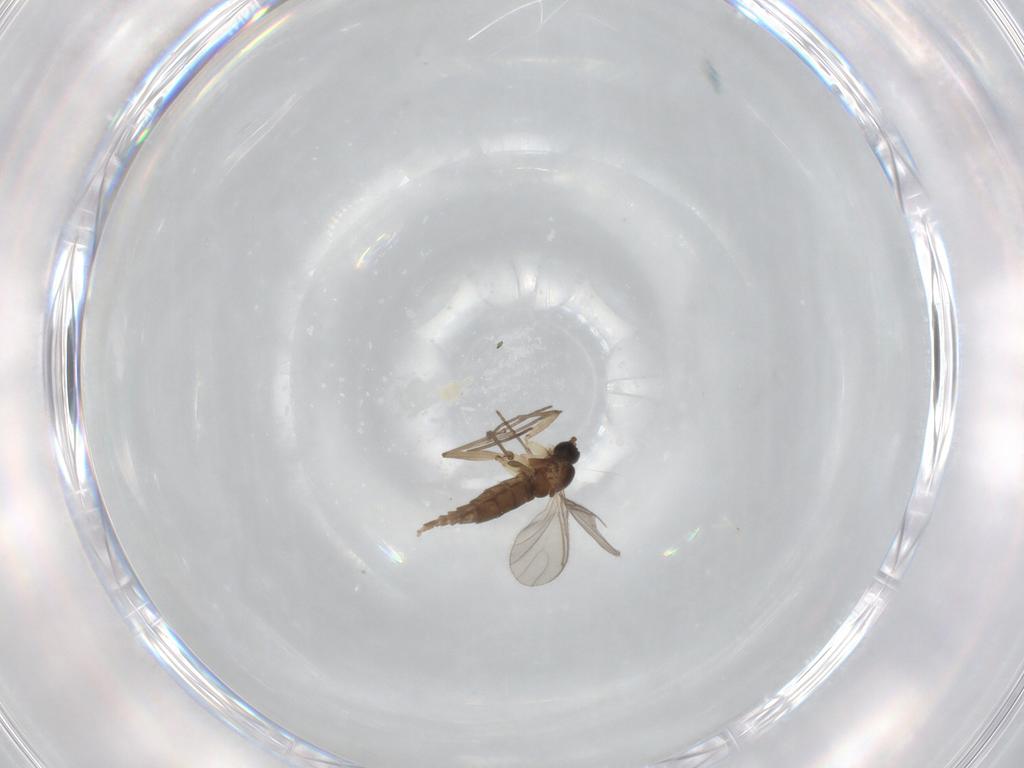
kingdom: Animalia
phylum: Arthropoda
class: Insecta
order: Diptera
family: Sciaridae
